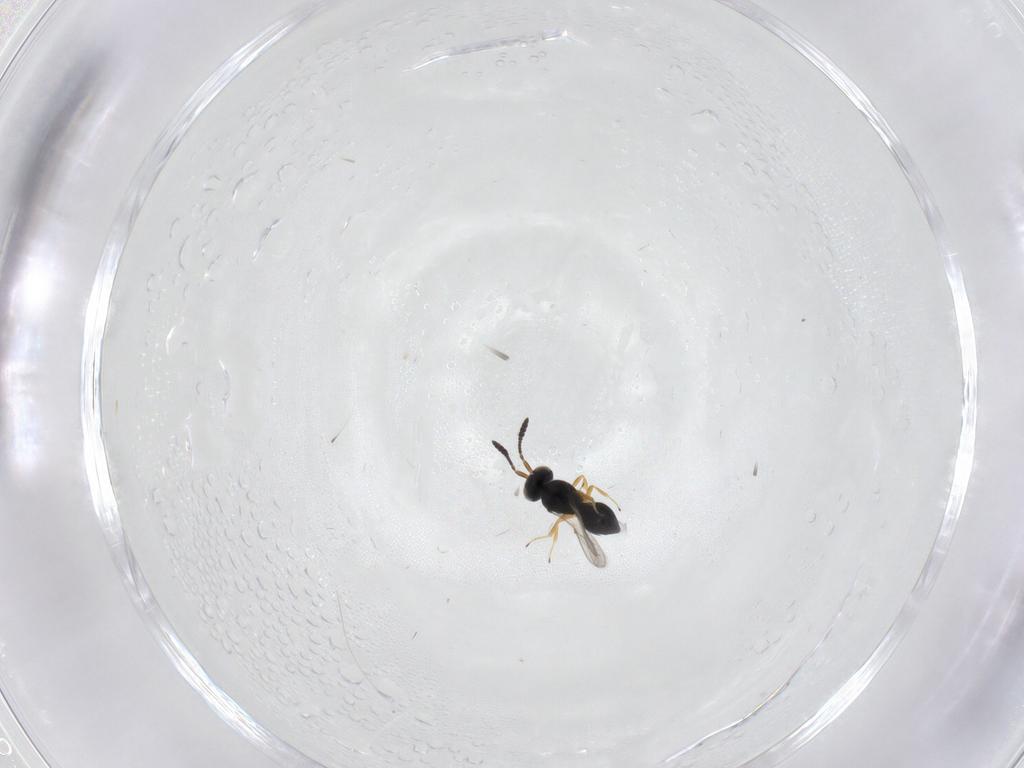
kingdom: Animalia
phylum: Arthropoda
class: Insecta
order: Hymenoptera
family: Scelionidae
